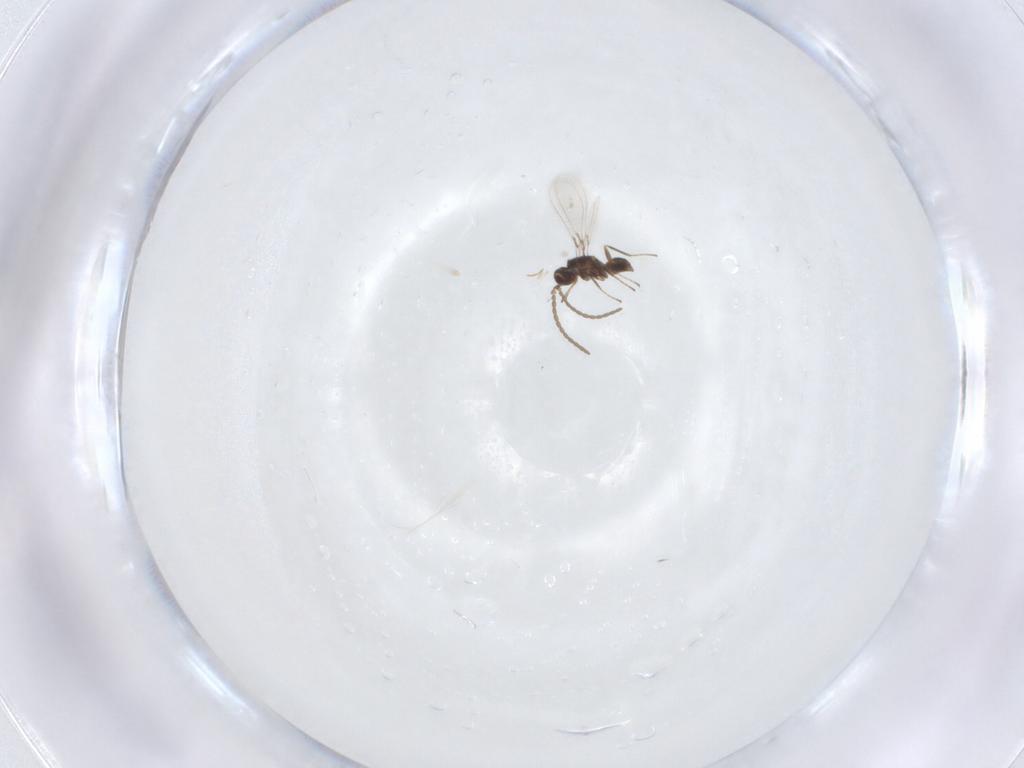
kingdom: Animalia
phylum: Arthropoda
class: Insecta
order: Hymenoptera
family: Mymaridae
